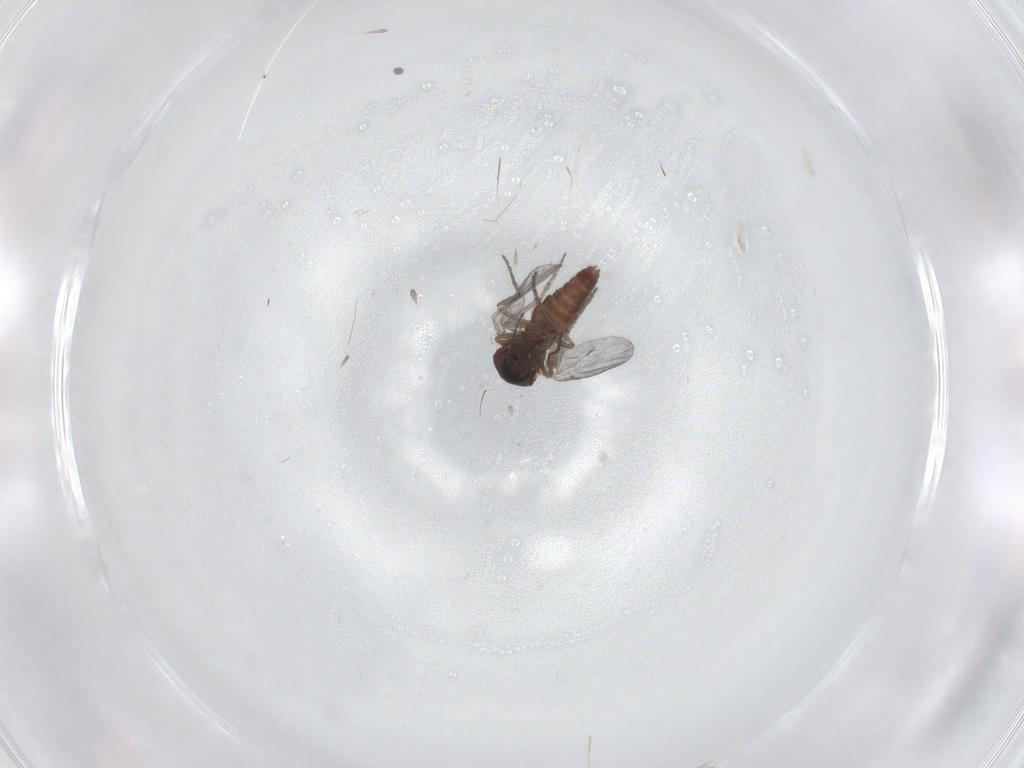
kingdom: Animalia
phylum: Arthropoda
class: Insecta
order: Diptera
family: Ceratopogonidae
